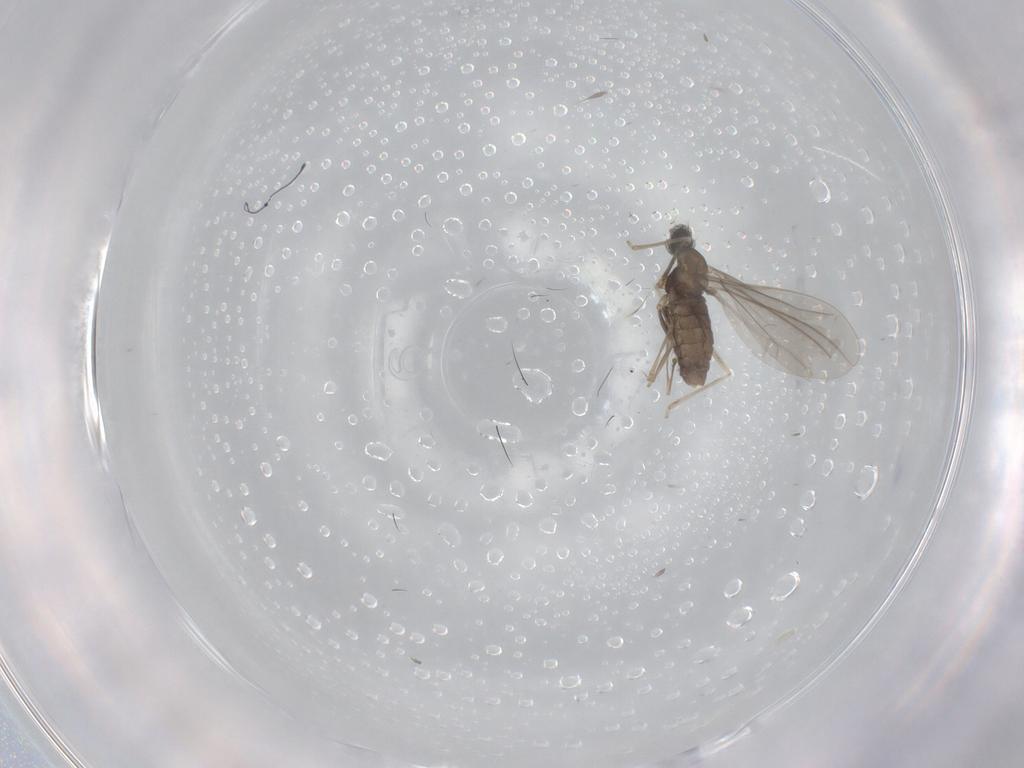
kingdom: Animalia
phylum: Arthropoda
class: Insecta
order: Diptera
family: Cecidomyiidae
